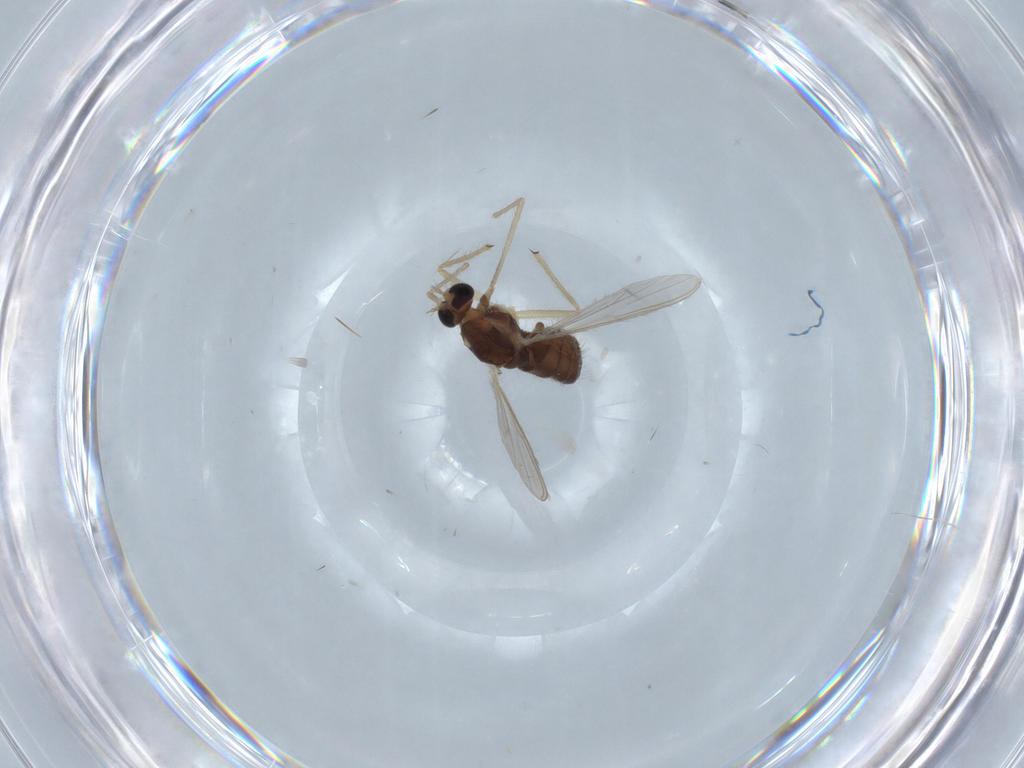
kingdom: Animalia
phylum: Arthropoda
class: Insecta
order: Diptera
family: Chironomidae
